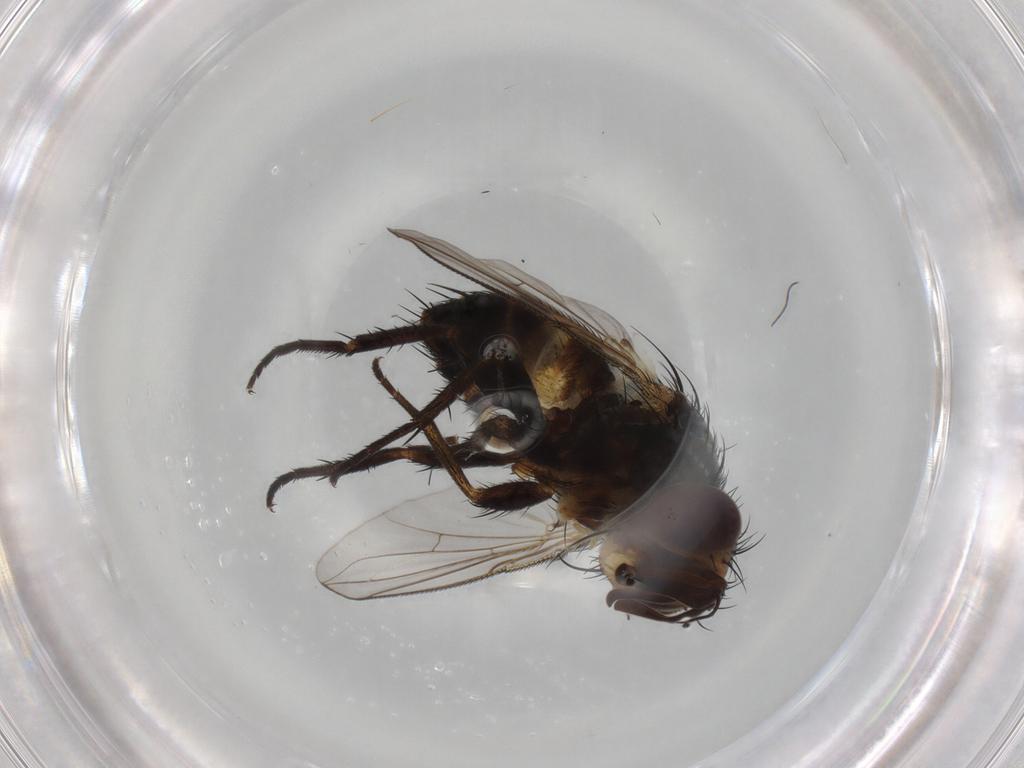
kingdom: Animalia
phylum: Arthropoda
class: Insecta
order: Diptera
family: Tachinidae
